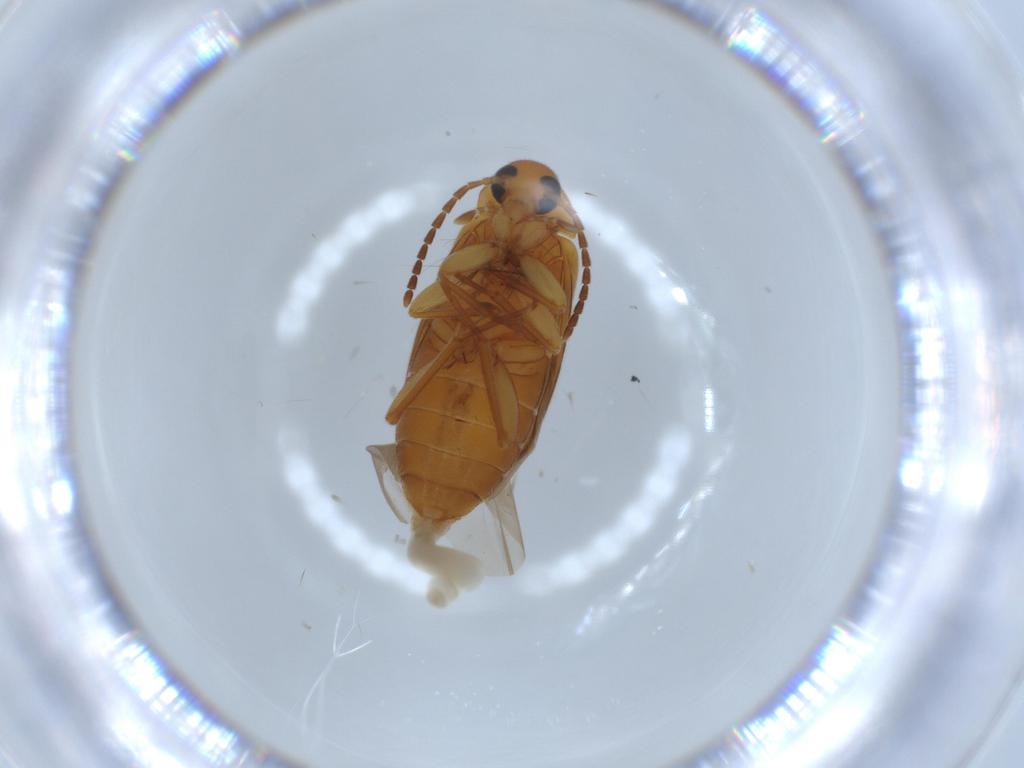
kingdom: Animalia
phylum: Arthropoda
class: Insecta
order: Coleoptera
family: Scraptiidae
